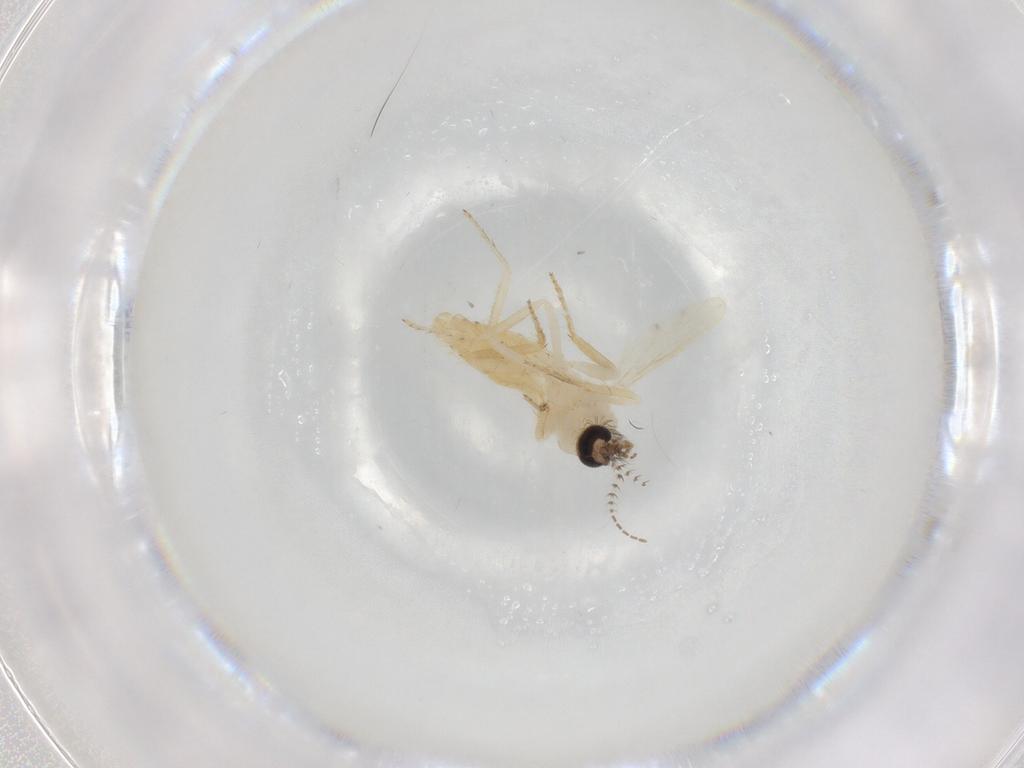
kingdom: Animalia
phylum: Arthropoda
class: Insecta
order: Diptera
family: Ceratopogonidae
